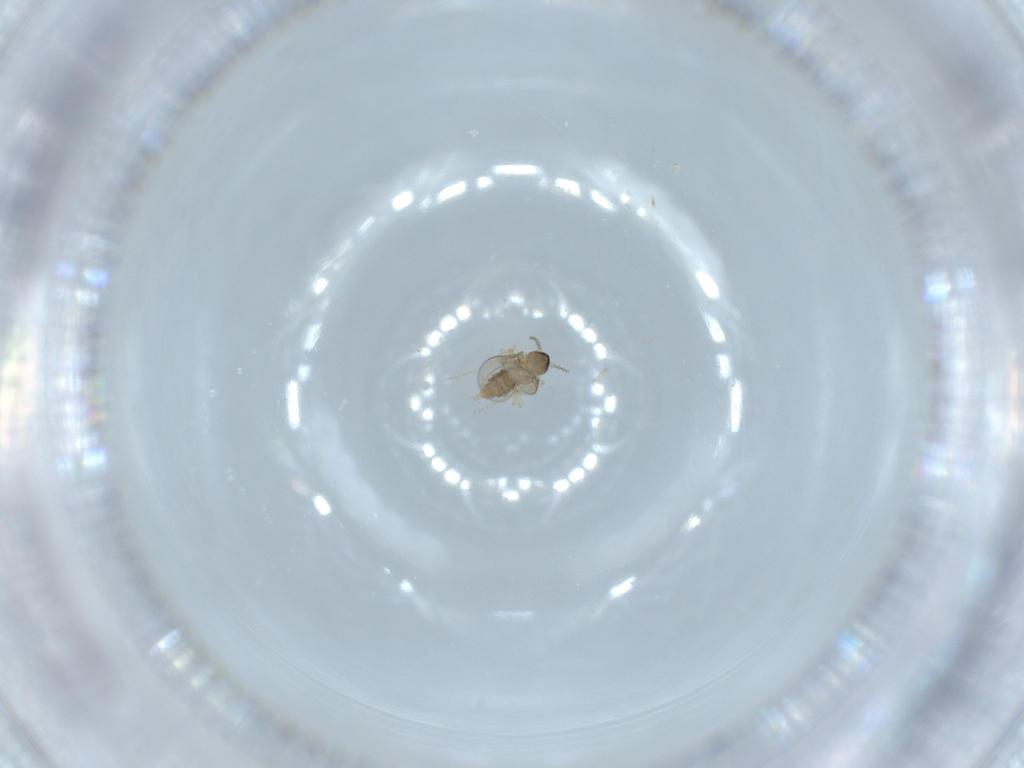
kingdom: Animalia
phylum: Arthropoda
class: Insecta
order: Diptera
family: Cecidomyiidae
